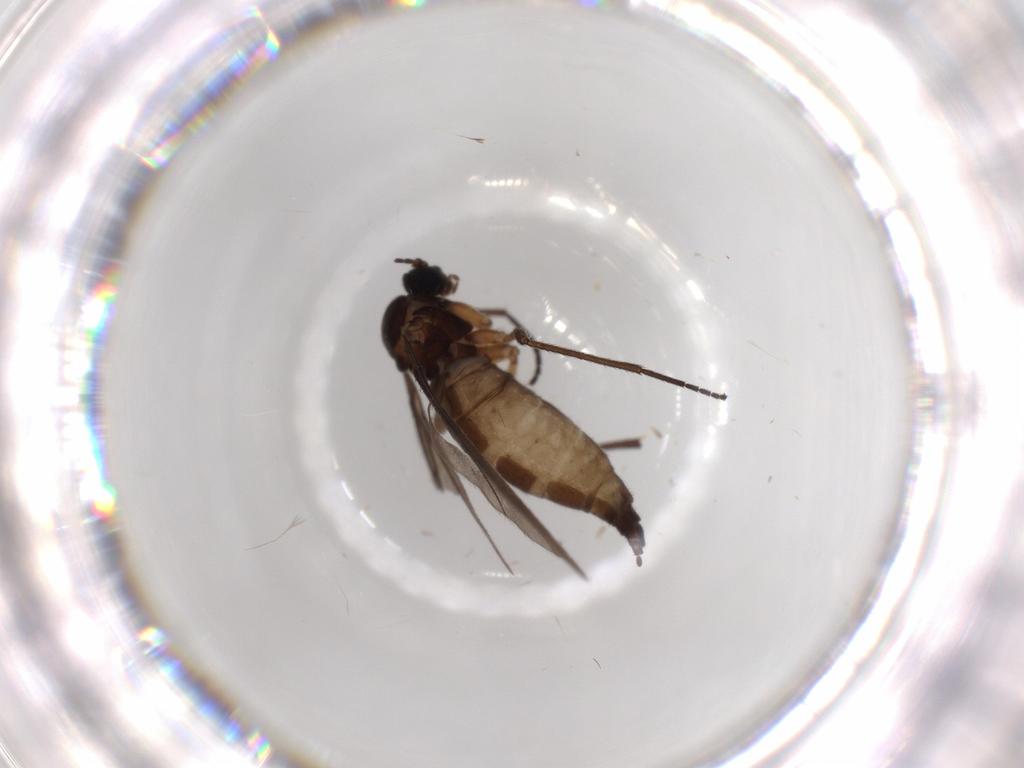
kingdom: Animalia
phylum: Arthropoda
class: Insecta
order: Diptera
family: Sciaridae
